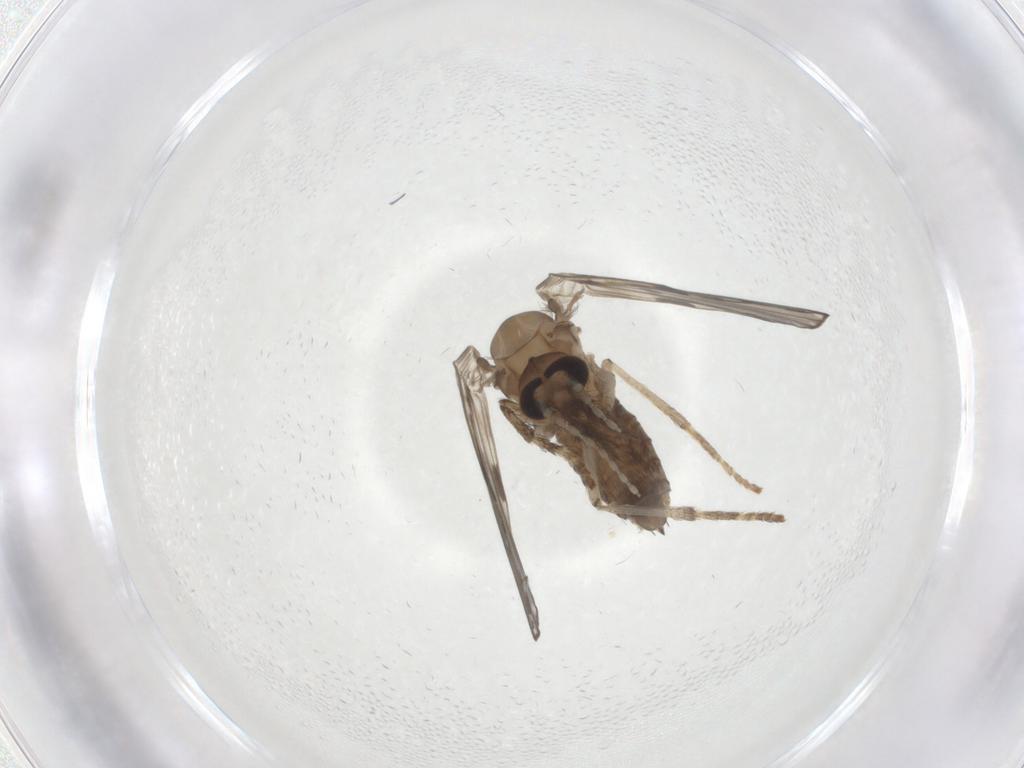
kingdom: Animalia
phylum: Arthropoda
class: Insecta
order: Diptera
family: Psychodidae
